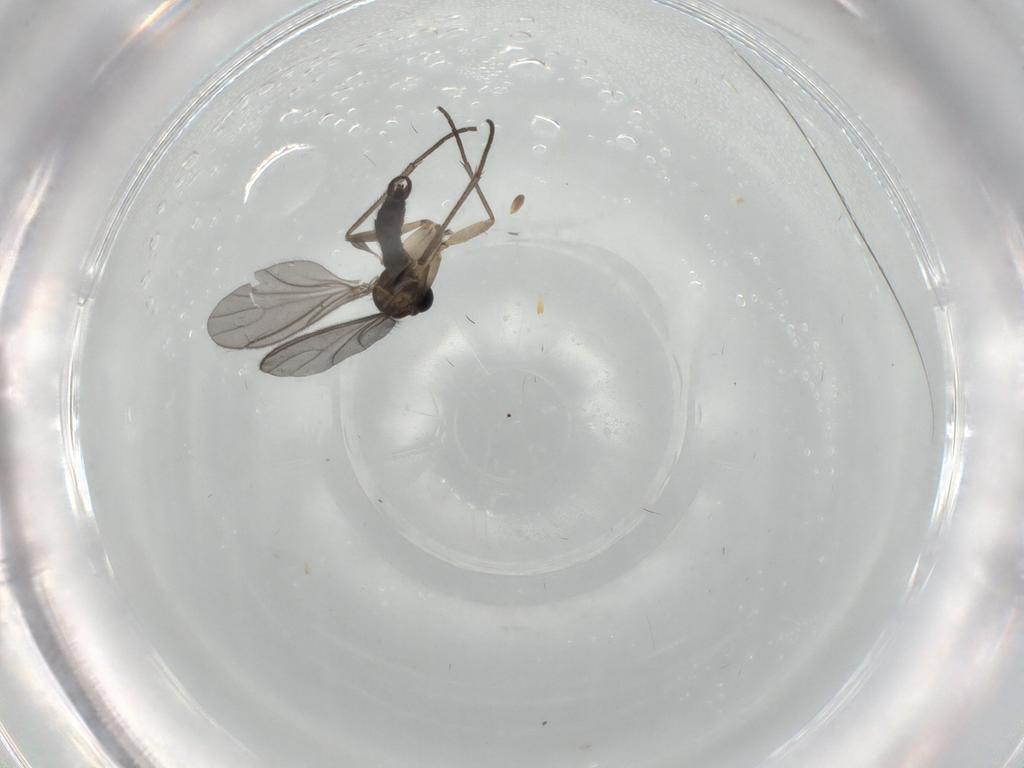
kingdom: Animalia
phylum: Arthropoda
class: Insecta
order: Diptera
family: Sciaridae
